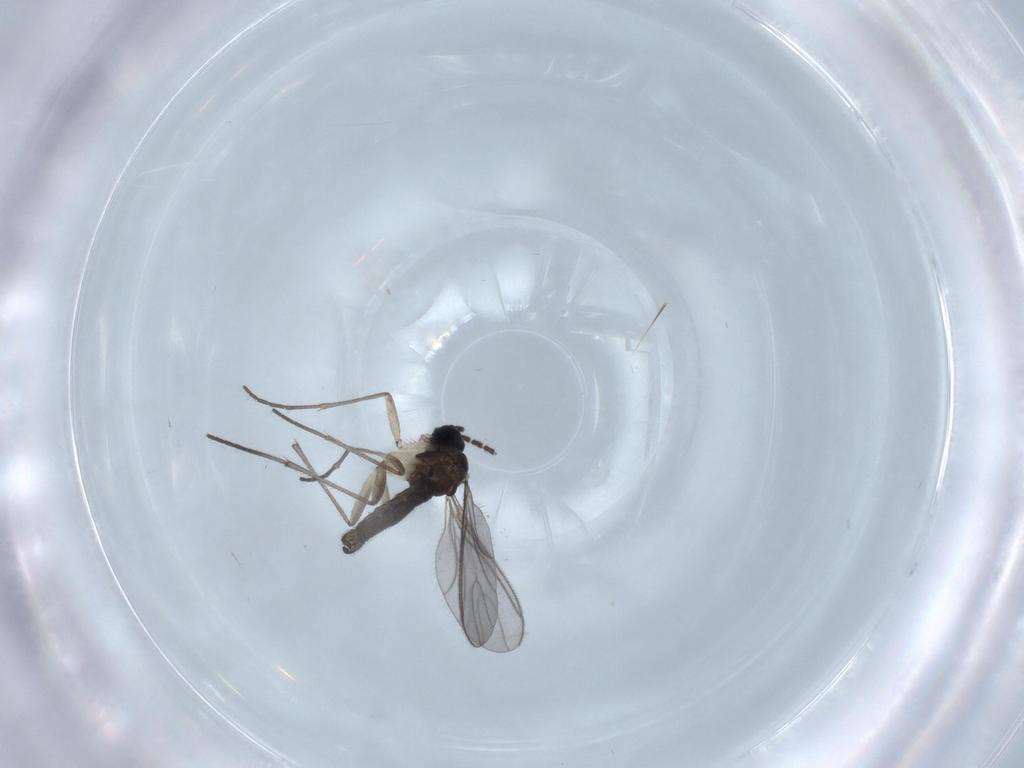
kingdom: Animalia
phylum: Arthropoda
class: Insecta
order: Diptera
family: Sciaridae
